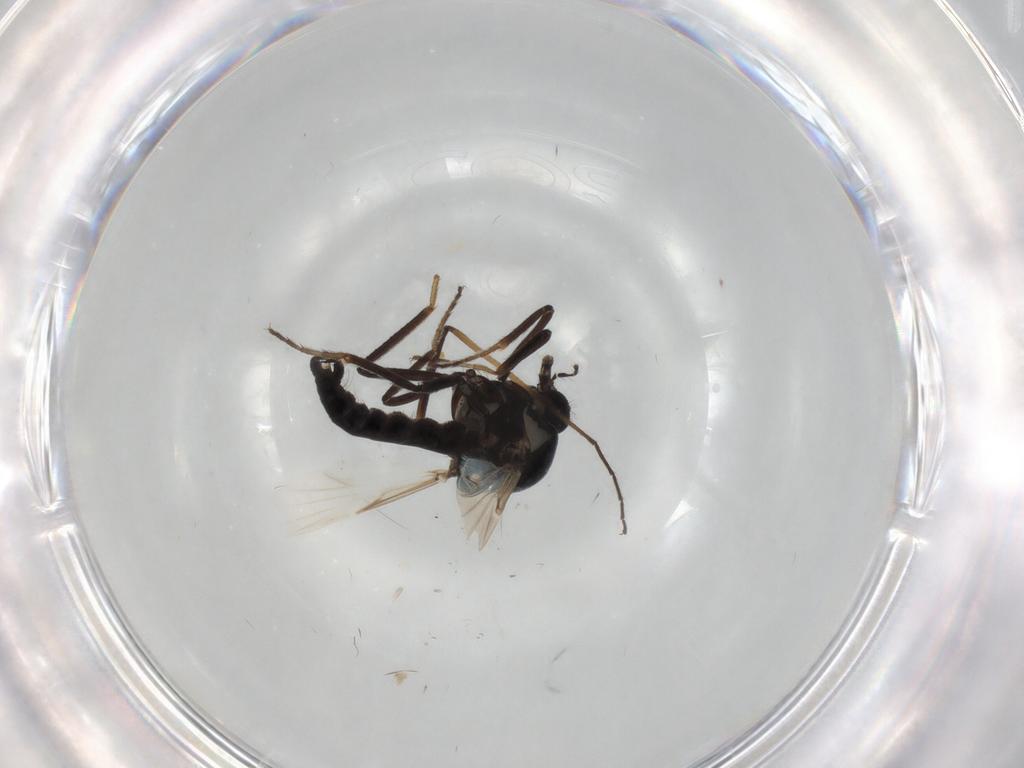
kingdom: Animalia
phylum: Arthropoda
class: Insecta
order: Diptera
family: Ceratopogonidae
